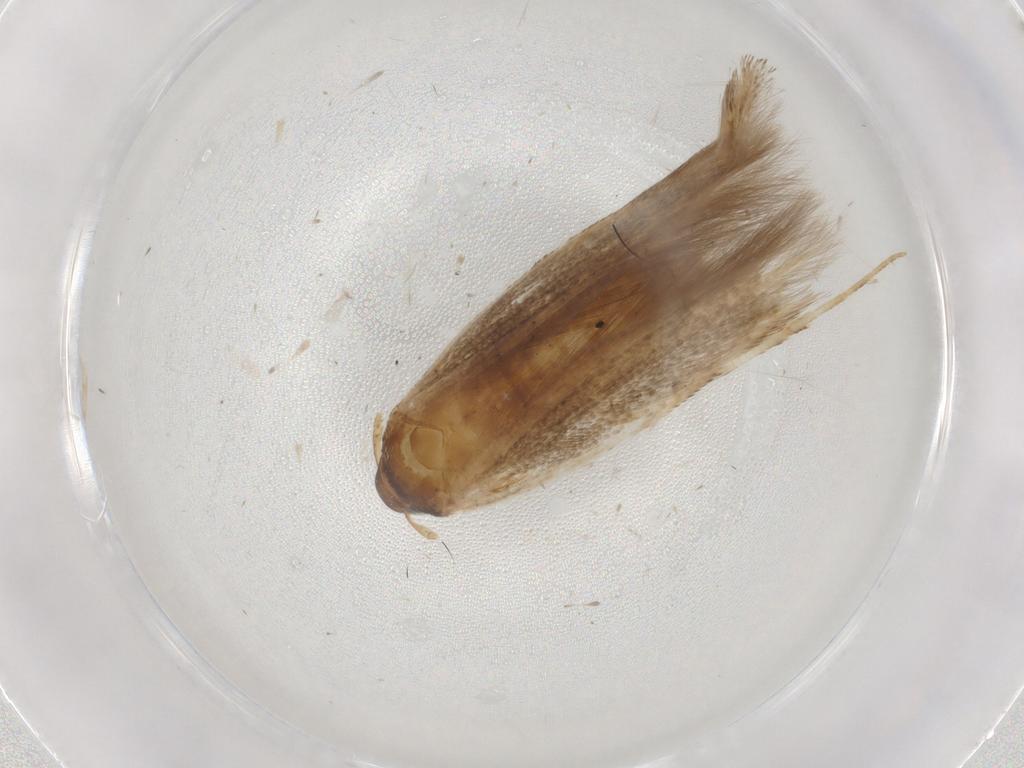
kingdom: Animalia
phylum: Arthropoda
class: Insecta
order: Lepidoptera
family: Cosmopterigidae
